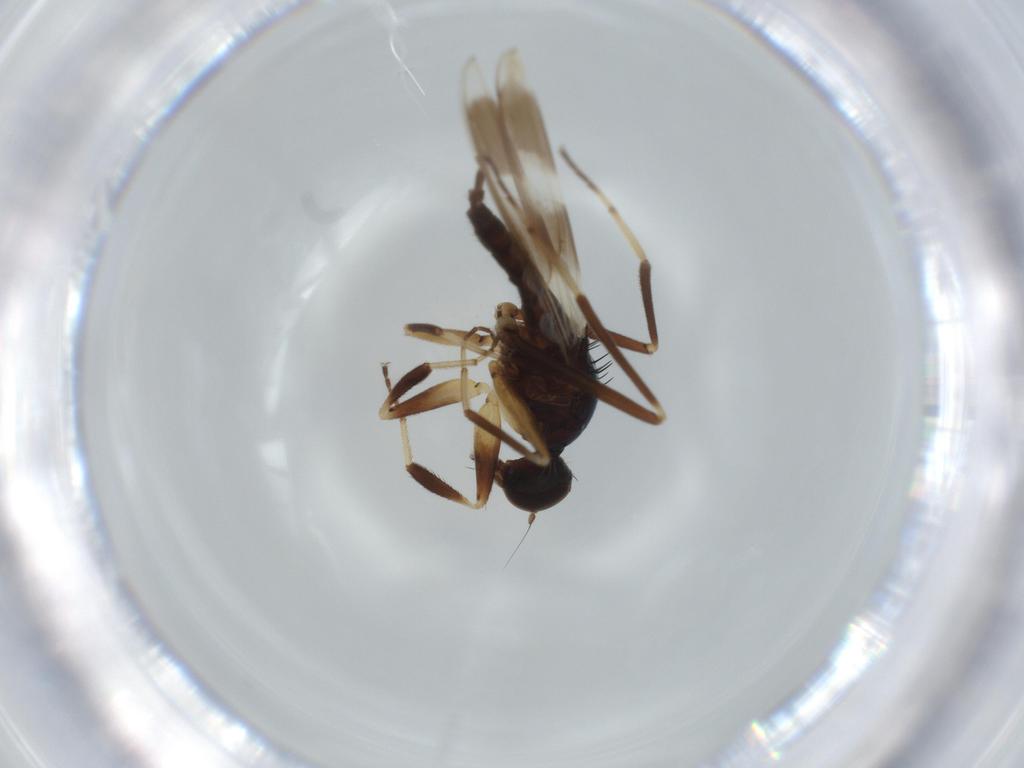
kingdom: Animalia
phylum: Arthropoda
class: Insecta
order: Diptera
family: Hybotidae
